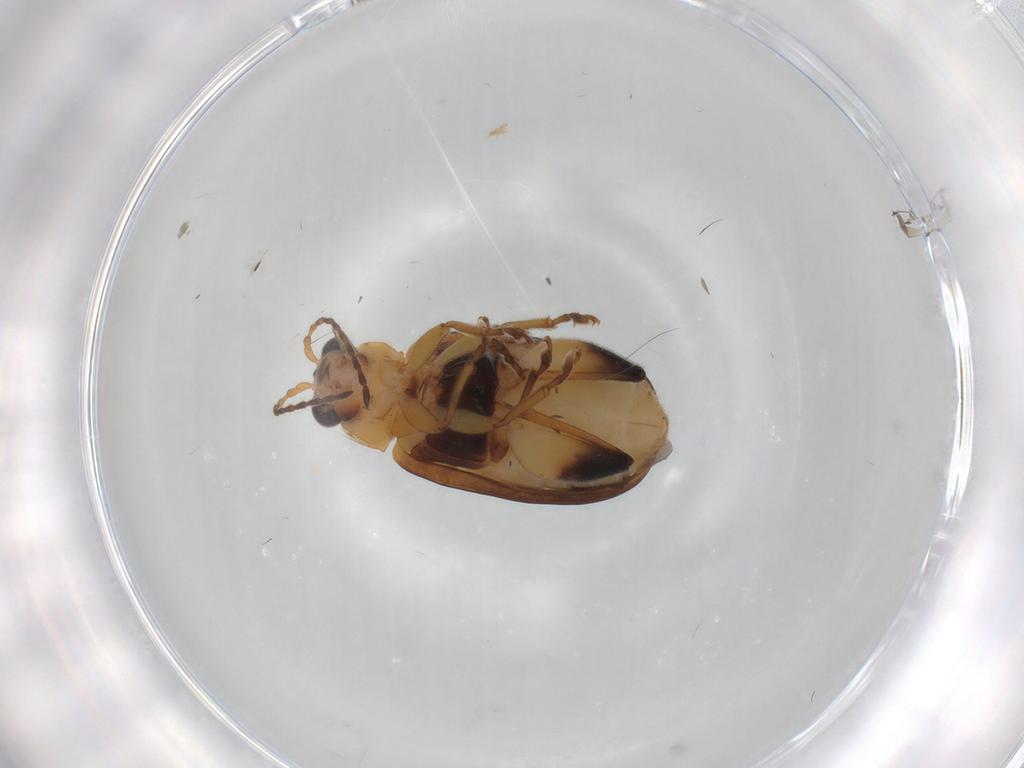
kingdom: Animalia
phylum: Arthropoda
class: Insecta
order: Coleoptera
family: Chrysomelidae
